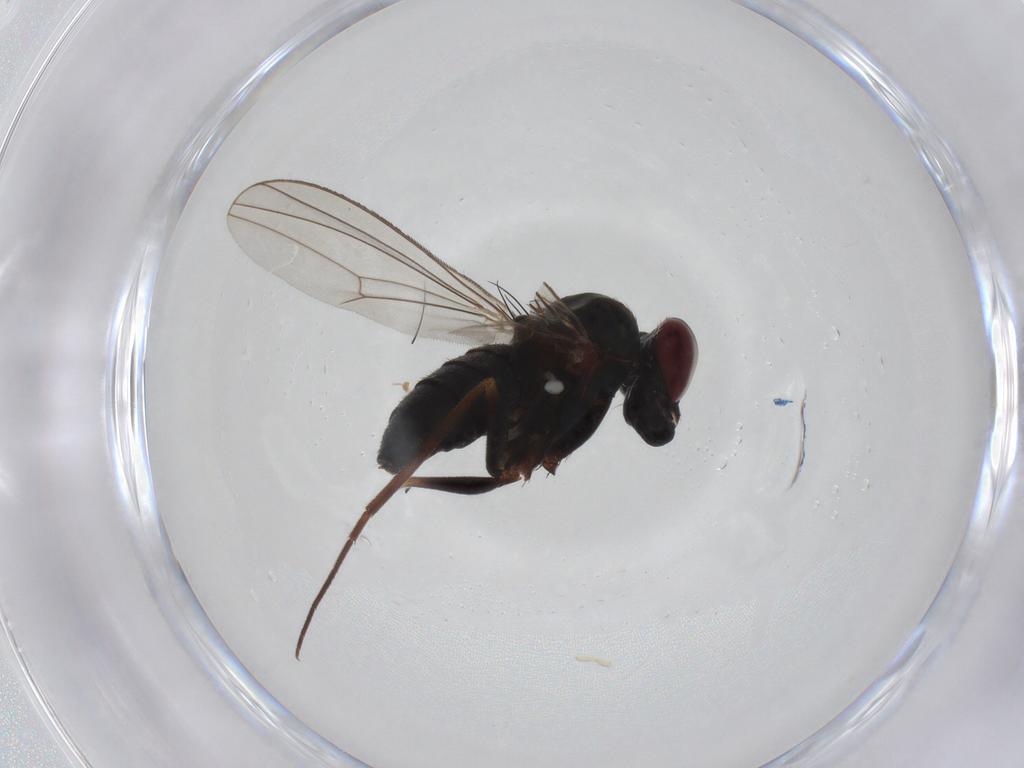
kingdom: Animalia
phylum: Arthropoda
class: Insecta
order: Diptera
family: Dolichopodidae
